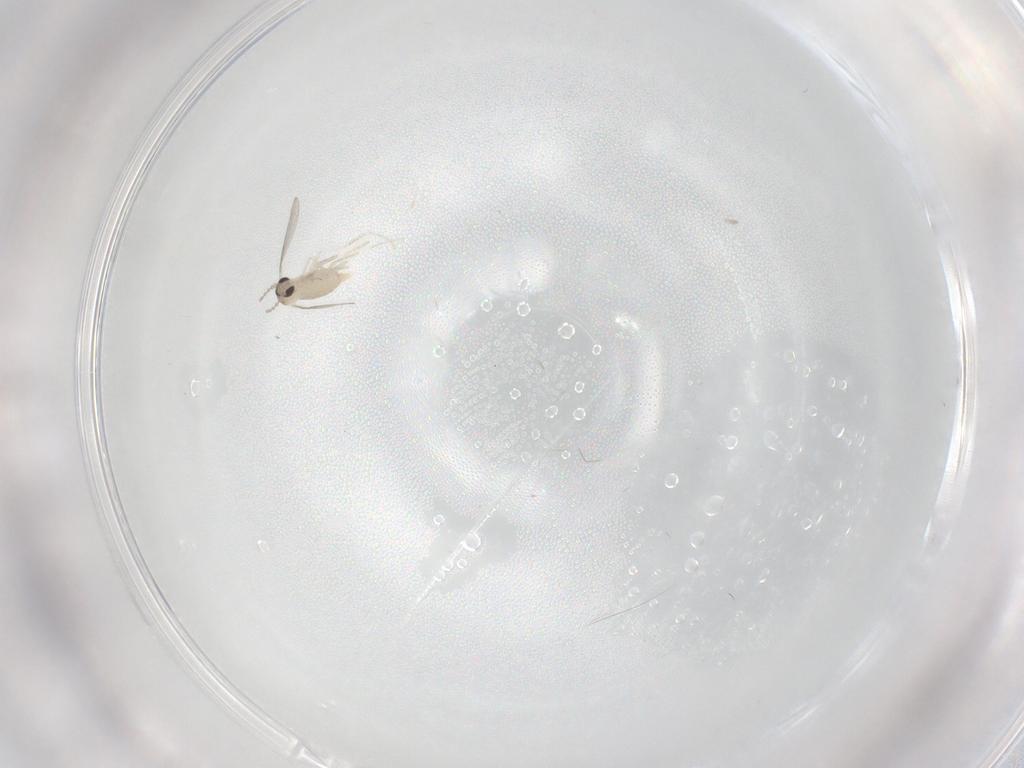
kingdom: Animalia
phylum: Arthropoda
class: Insecta
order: Diptera
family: Cecidomyiidae
